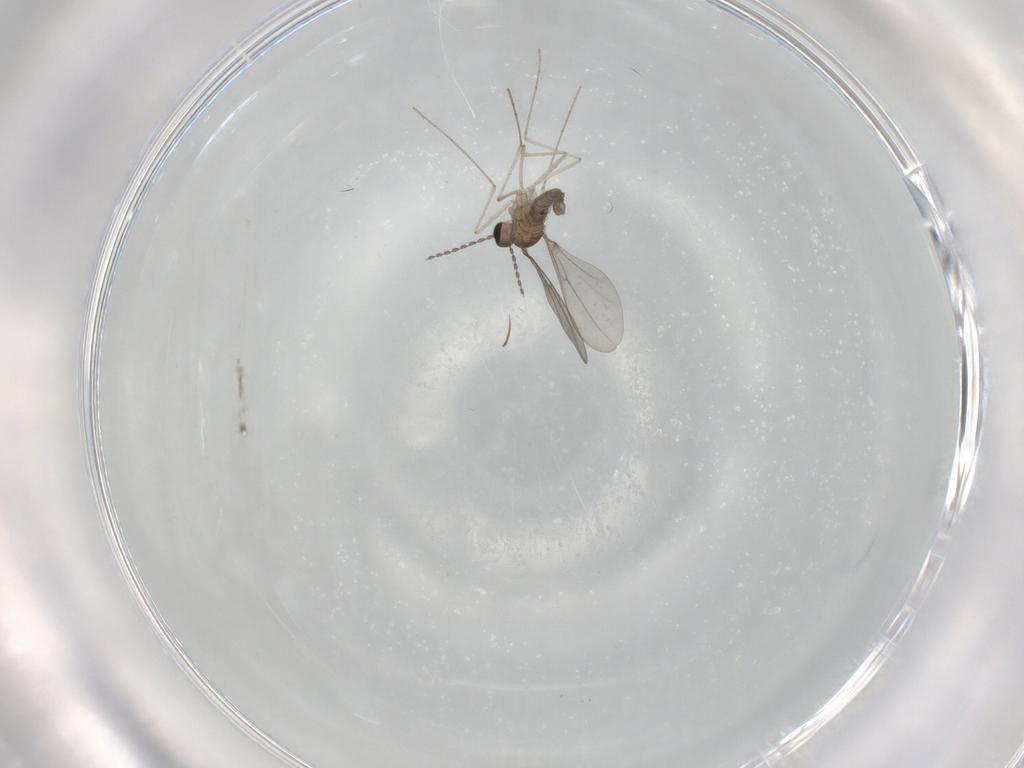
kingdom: Animalia
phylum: Arthropoda
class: Insecta
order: Diptera
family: Cecidomyiidae
